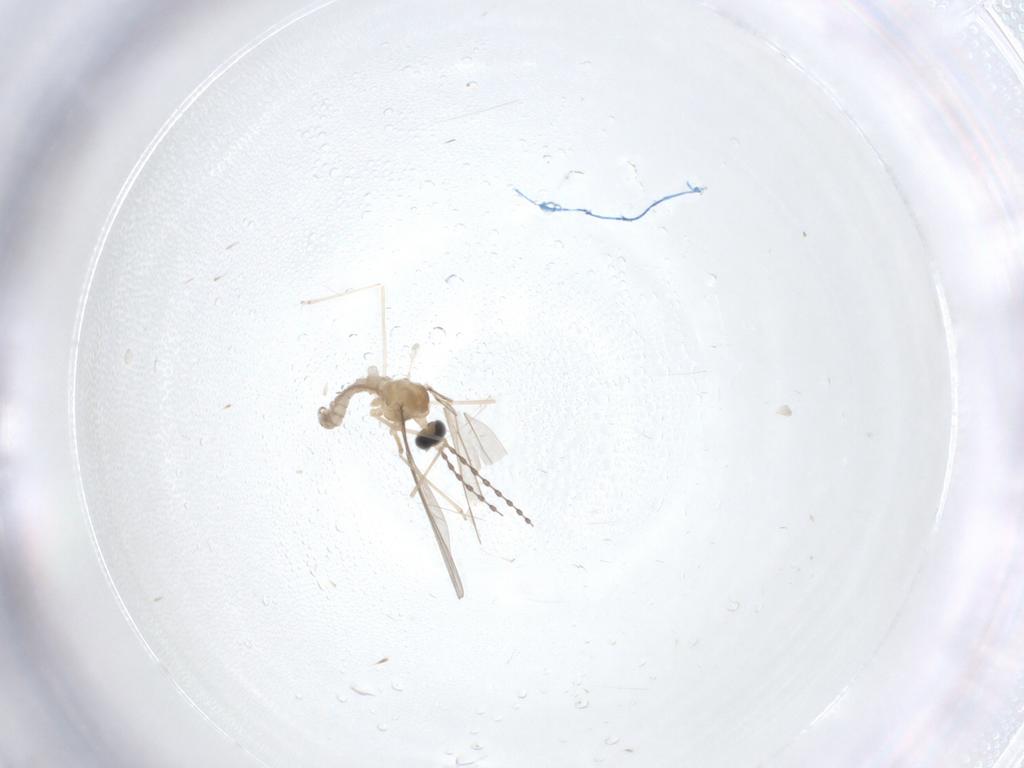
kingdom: Animalia
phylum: Arthropoda
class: Insecta
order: Diptera
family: Cecidomyiidae
